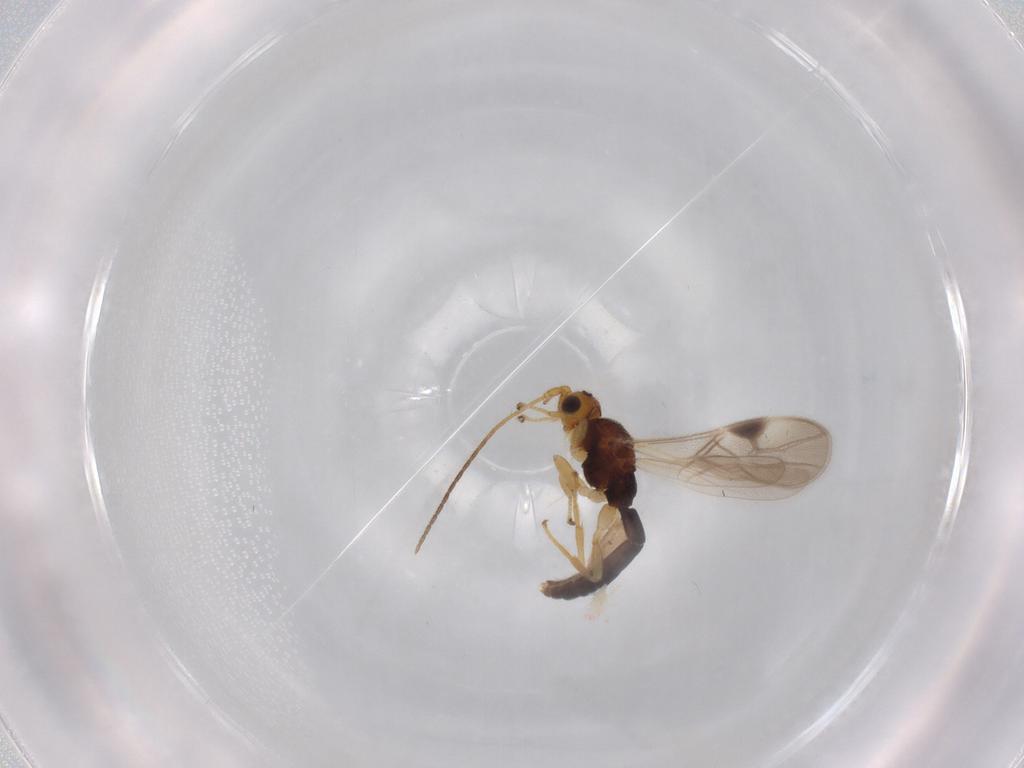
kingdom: Animalia
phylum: Arthropoda
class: Insecta
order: Hymenoptera
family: Braconidae
